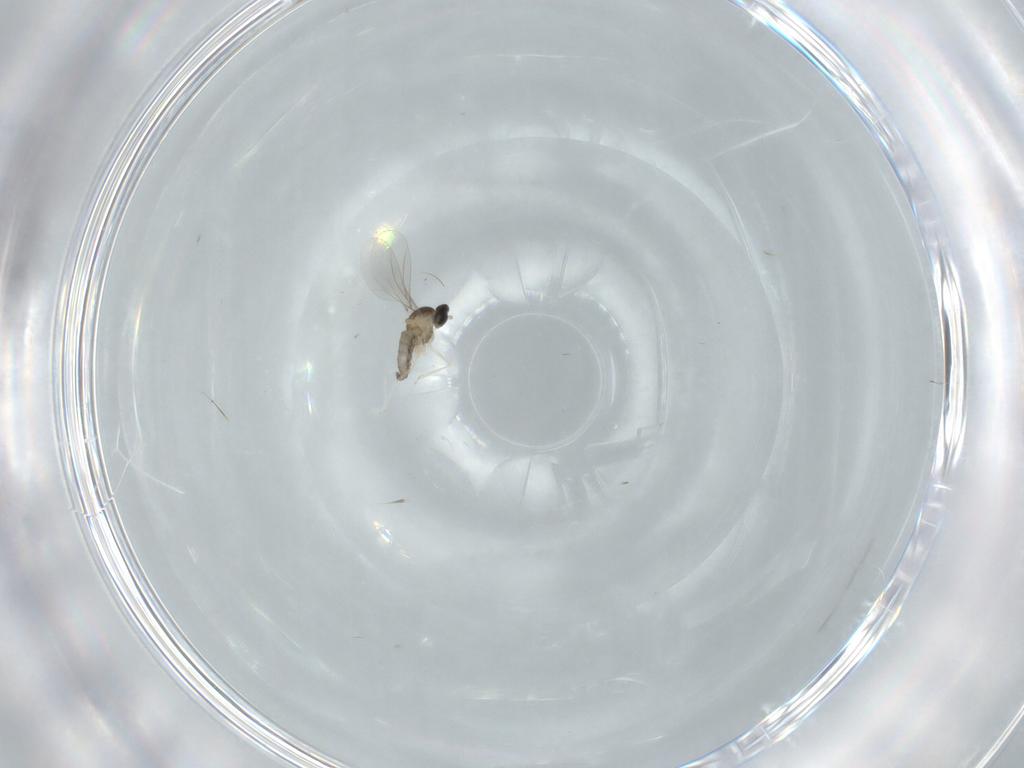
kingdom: Animalia
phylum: Arthropoda
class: Insecta
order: Diptera
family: Cecidomyiidae
